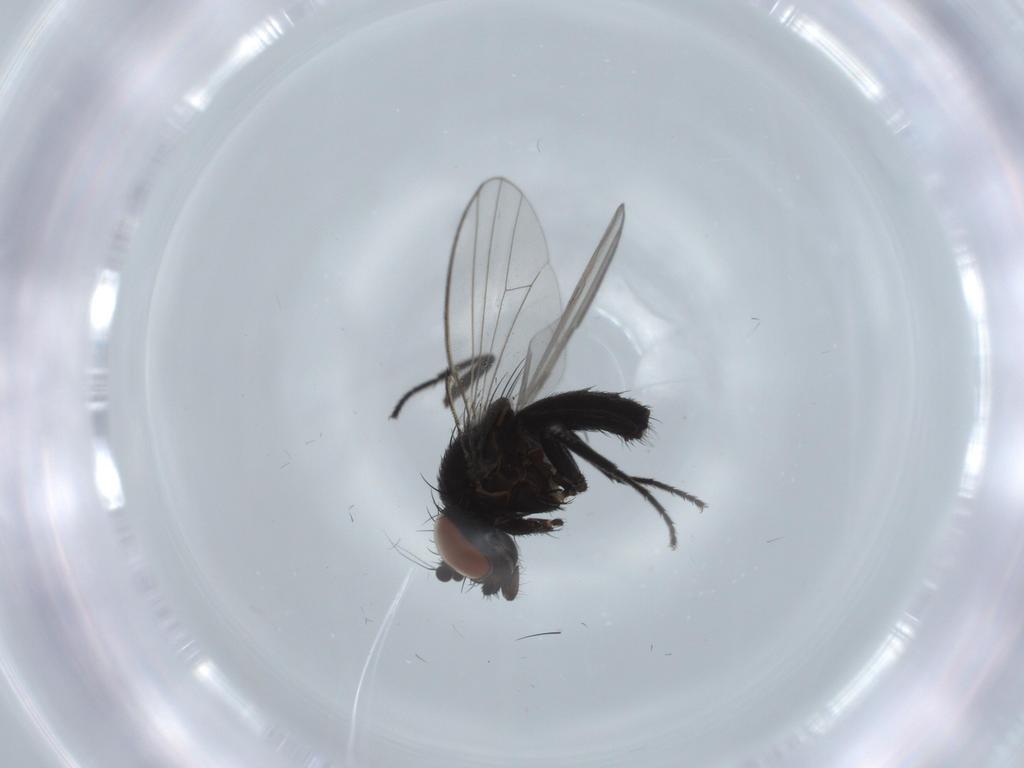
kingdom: Animalia
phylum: Arthropoda
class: Insecta
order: Diptera
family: Milichiidae
